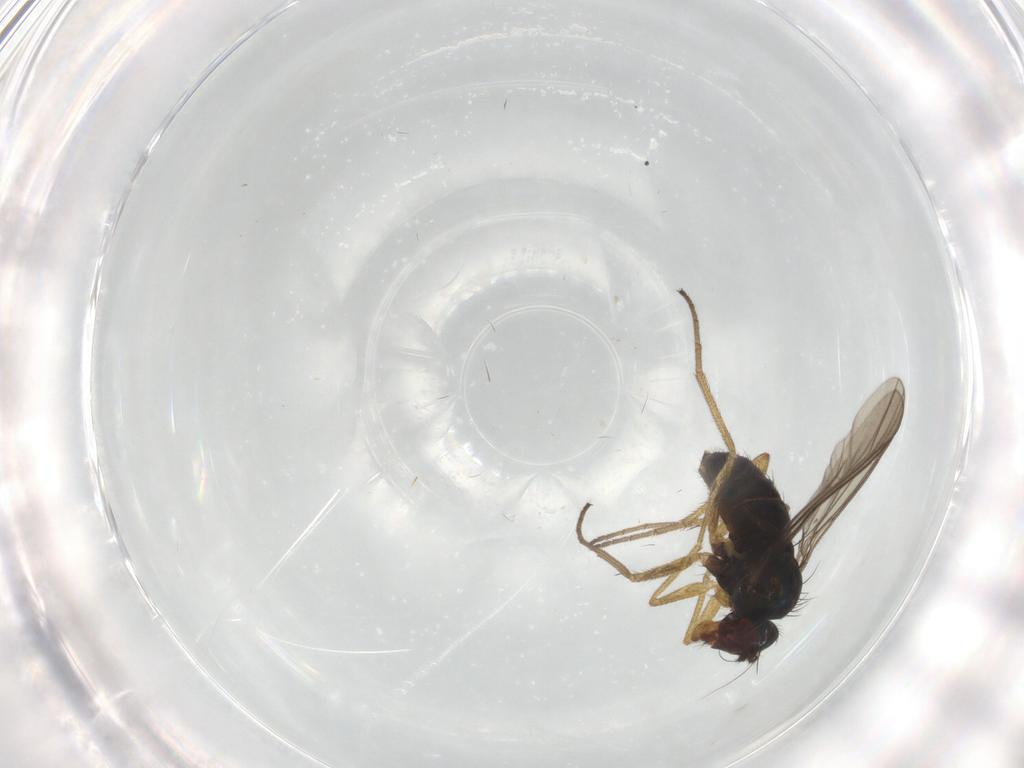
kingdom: Animalia
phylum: Arthropoda
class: Insecta
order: Diptera
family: Dolichopodidae
